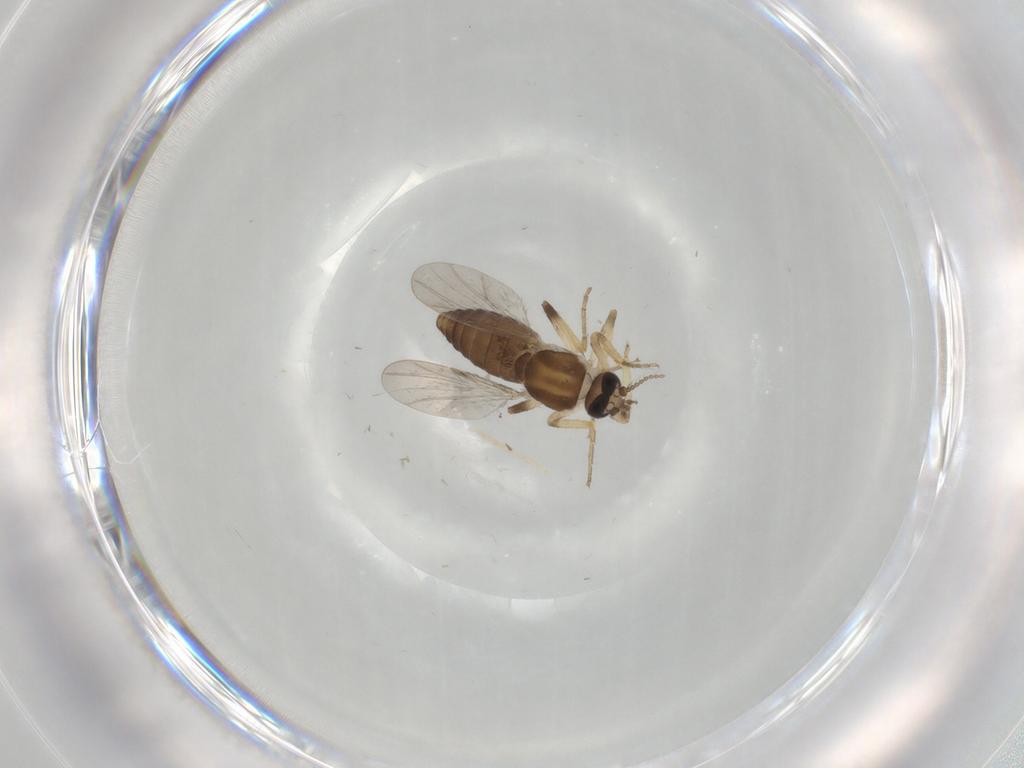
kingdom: Animalia
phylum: Arthropoda
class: Insecta
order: Diptera
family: Ceratopogonidae
